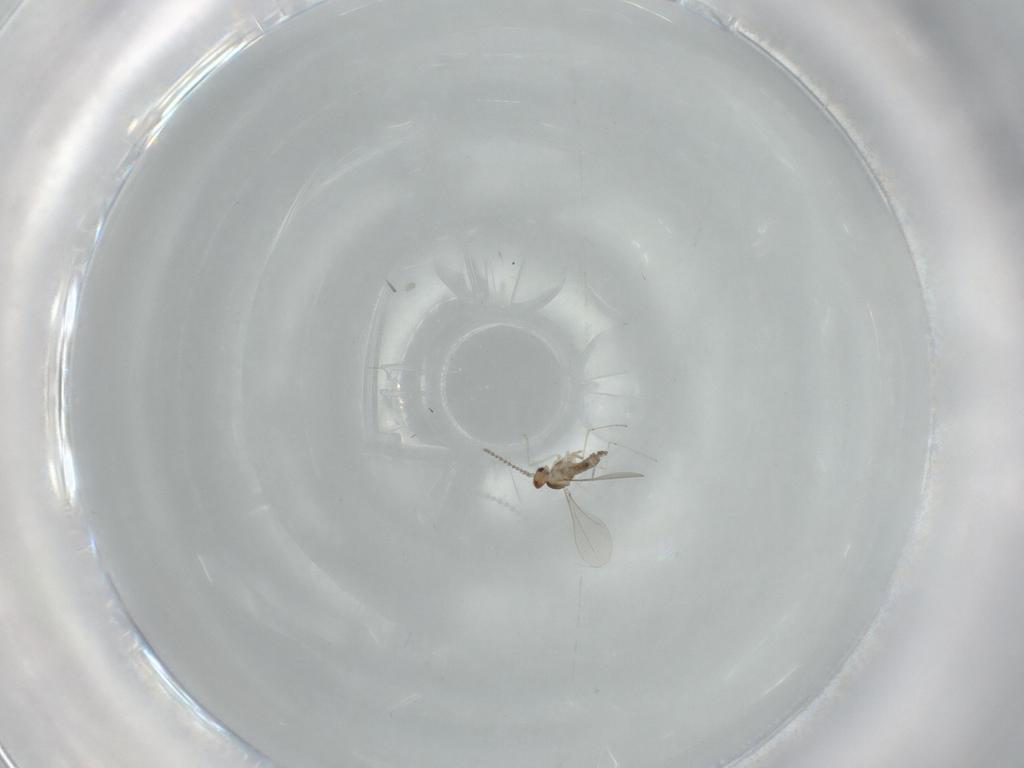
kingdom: Animalia
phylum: Arthropoda
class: Insecta
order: Diptera
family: Cecidomyiidae
